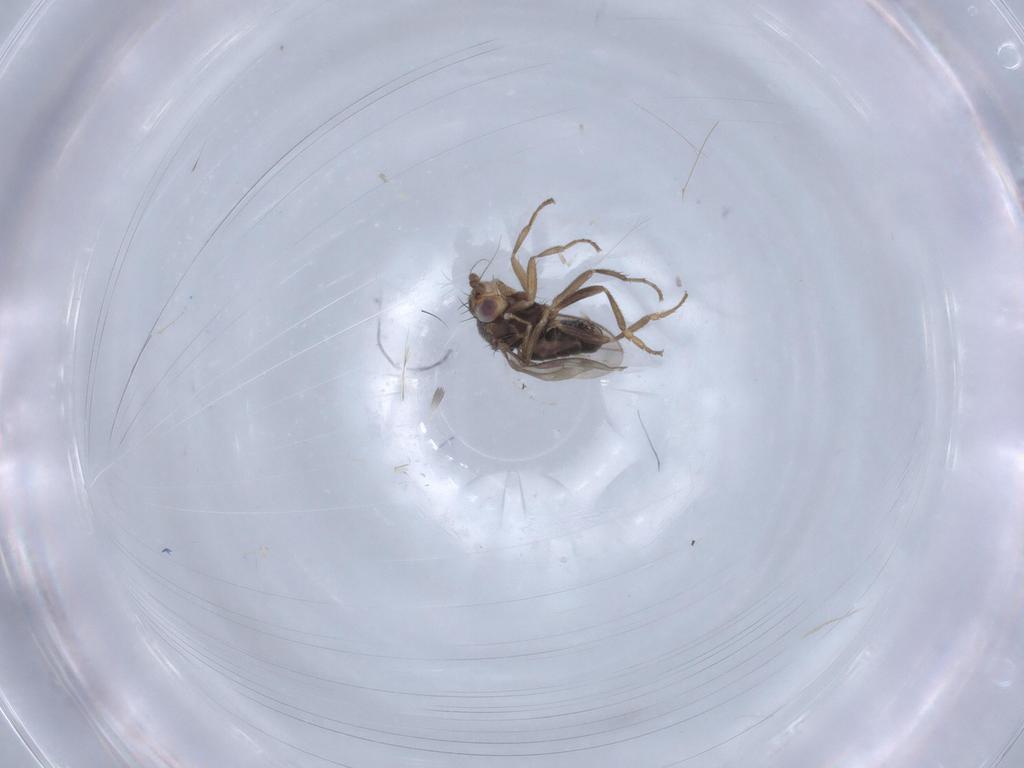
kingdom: Animalia
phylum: Arthropoda
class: Insecta
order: Diptera
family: Sphaeroceridae
